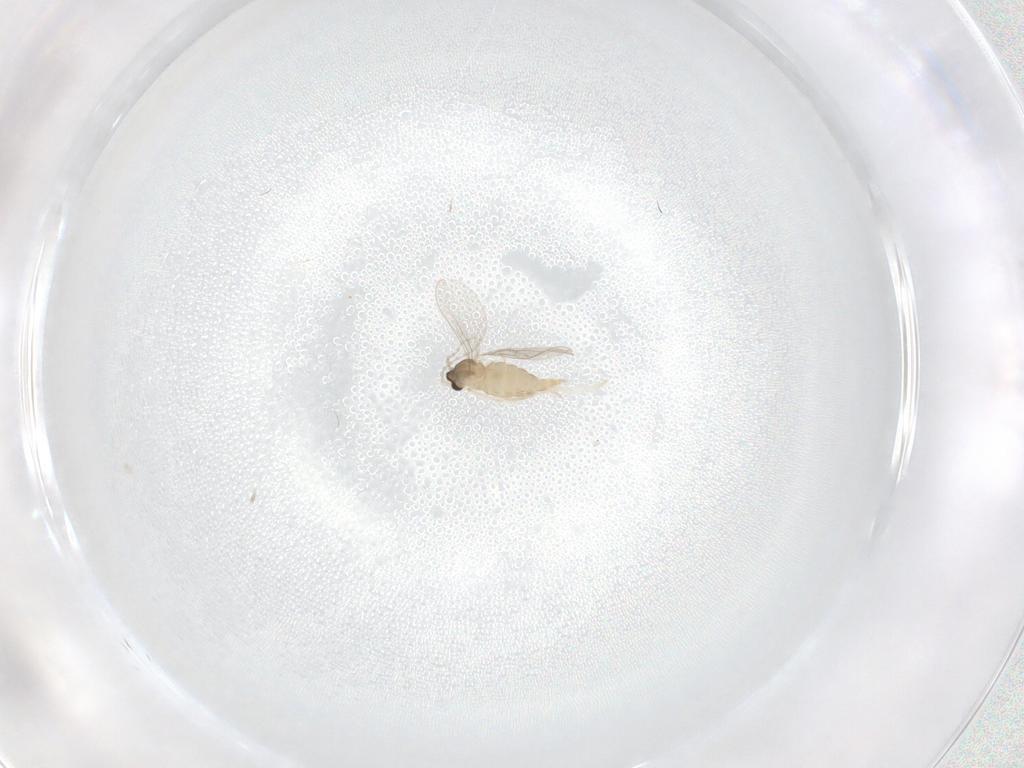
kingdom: Animalia
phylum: Arthropoda
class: Insecta
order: Diptera
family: Cecidomyiidae
